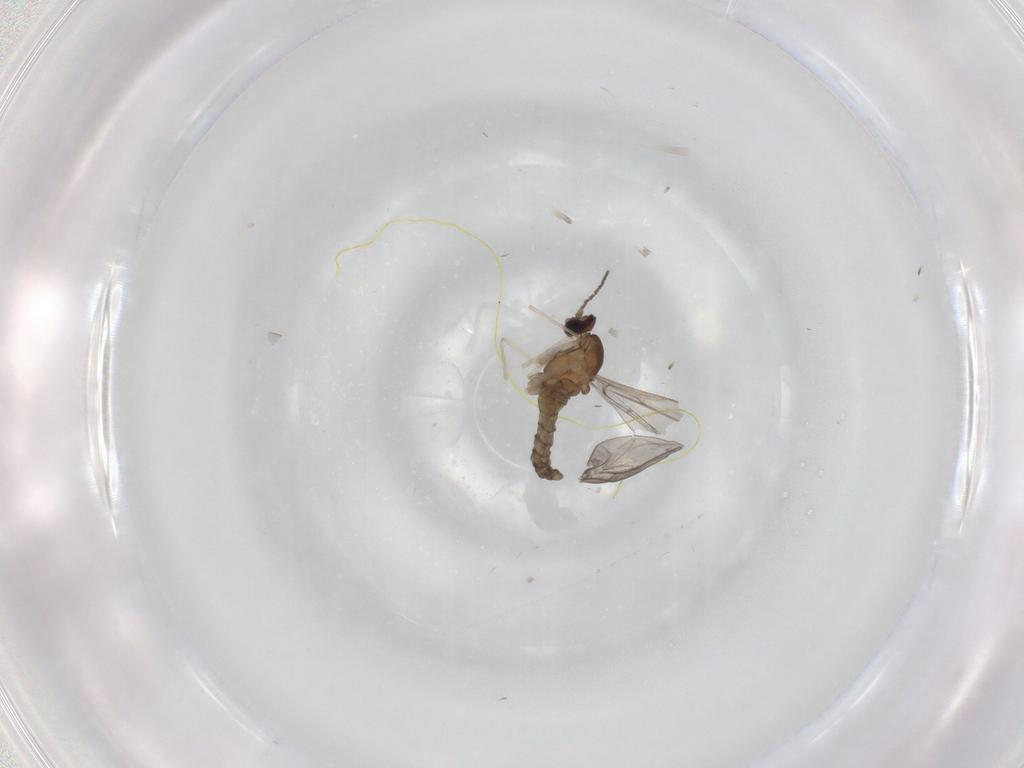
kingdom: Animalia
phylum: Arthropoda
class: Insecta
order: Diptera
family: Cecidomyiidae
